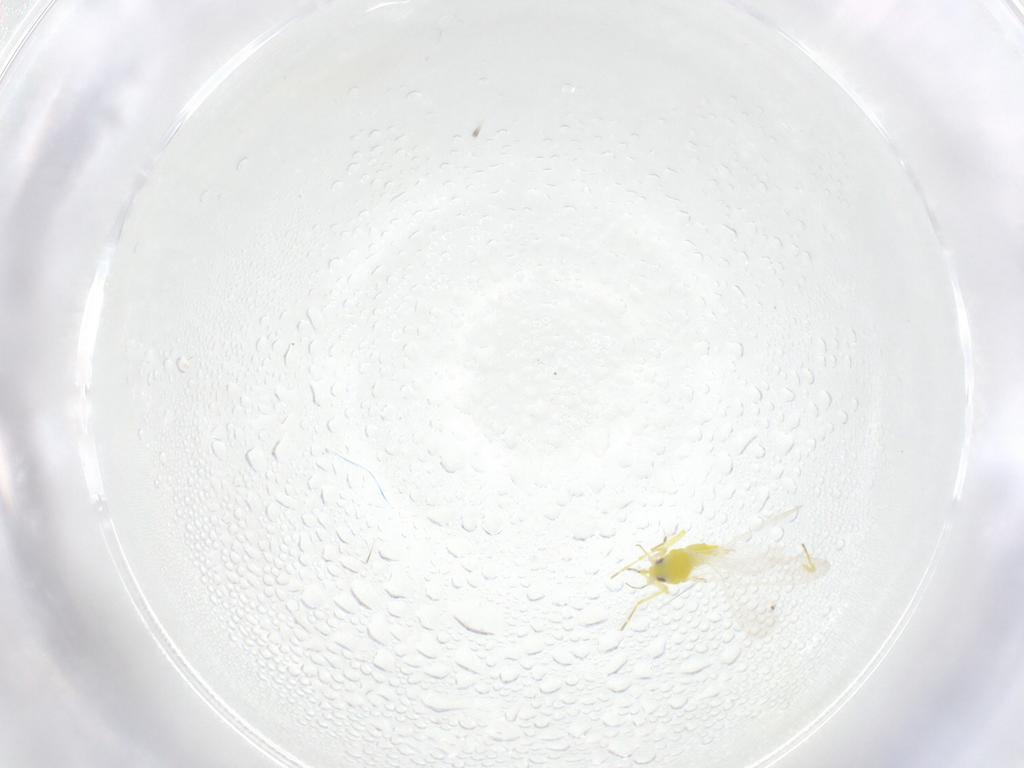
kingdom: Animalia
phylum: Arthropoda
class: Insecta
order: Hemiptera
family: Aleyrodidae
